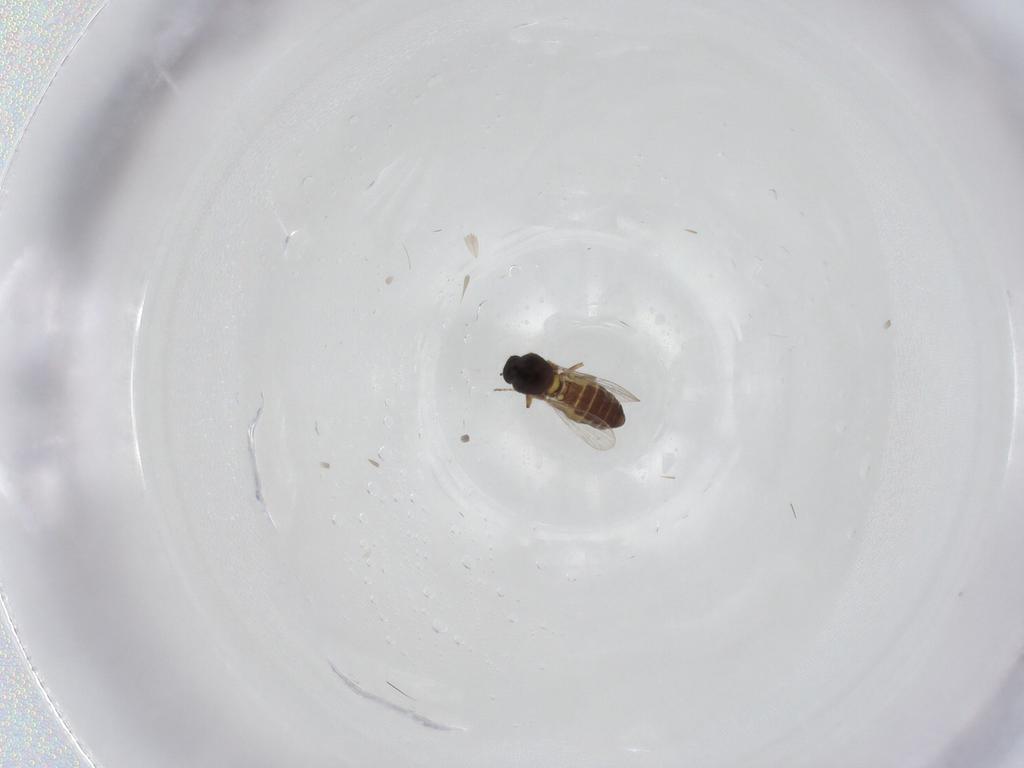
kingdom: Animalia
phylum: Arthropoda
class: Insecta
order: Diptera
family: Ceratopogonidae
